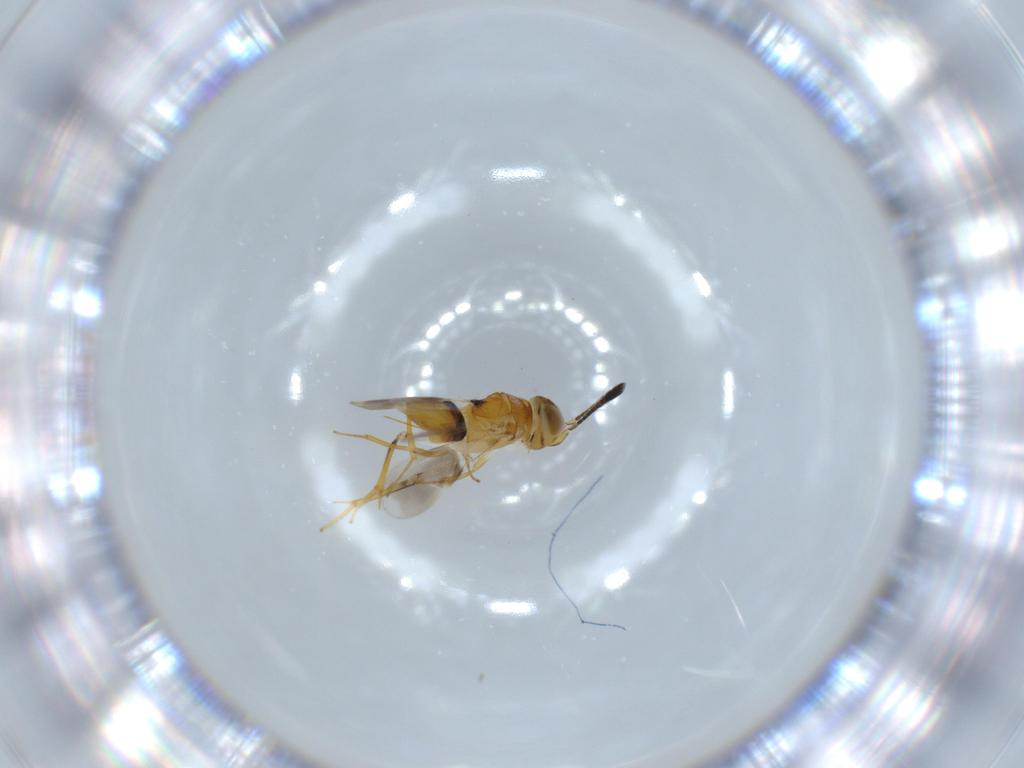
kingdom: Animalia
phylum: Arthropoda
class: Insecta
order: Hymenoptera
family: Encyrtidae
